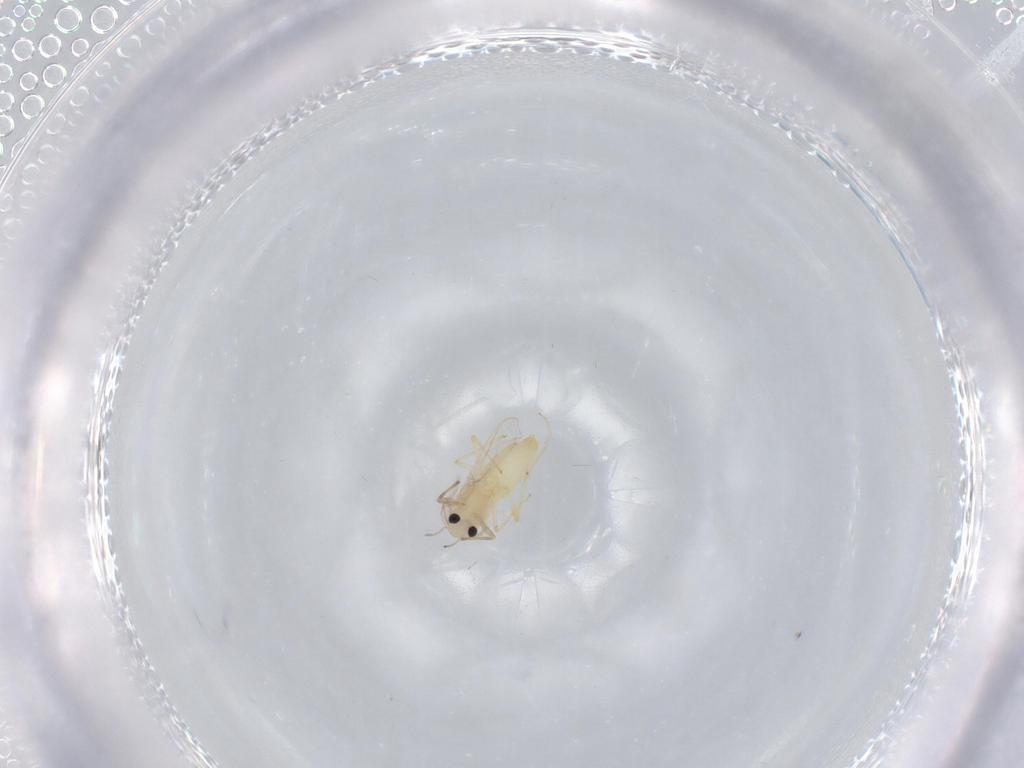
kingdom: Animalia
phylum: Arthropoda
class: Insecta
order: Diptera
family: Chironomidae
